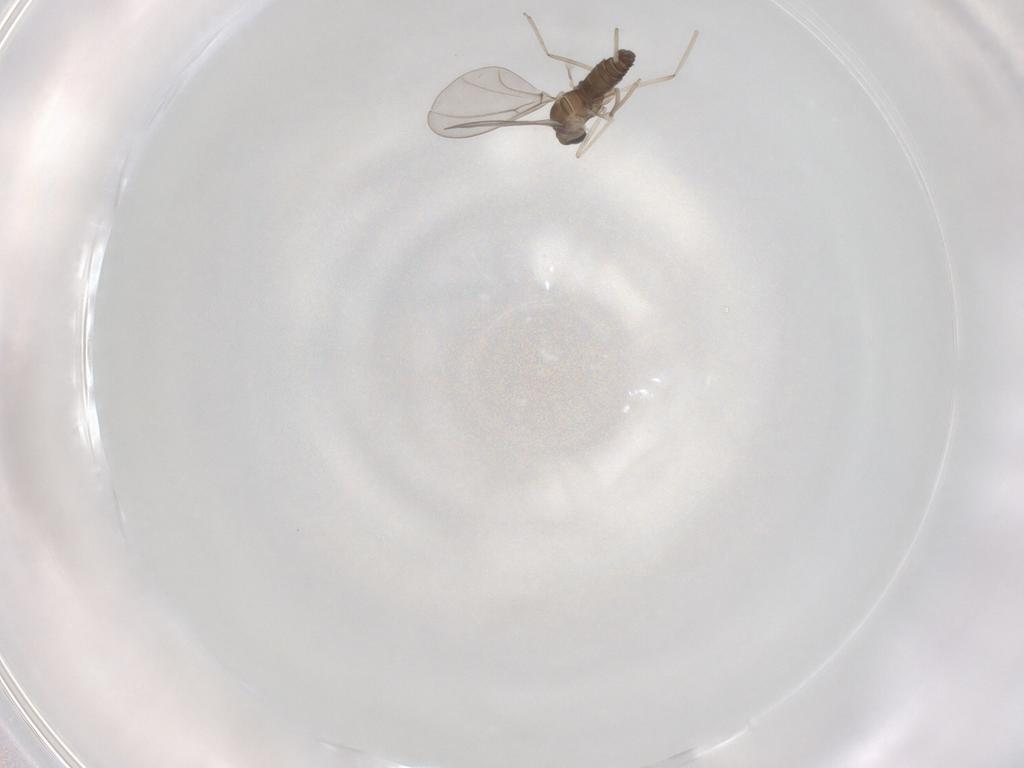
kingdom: Animalia
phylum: Arthropoda
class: Insecta
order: Diptera
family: Cecidomyiidae
